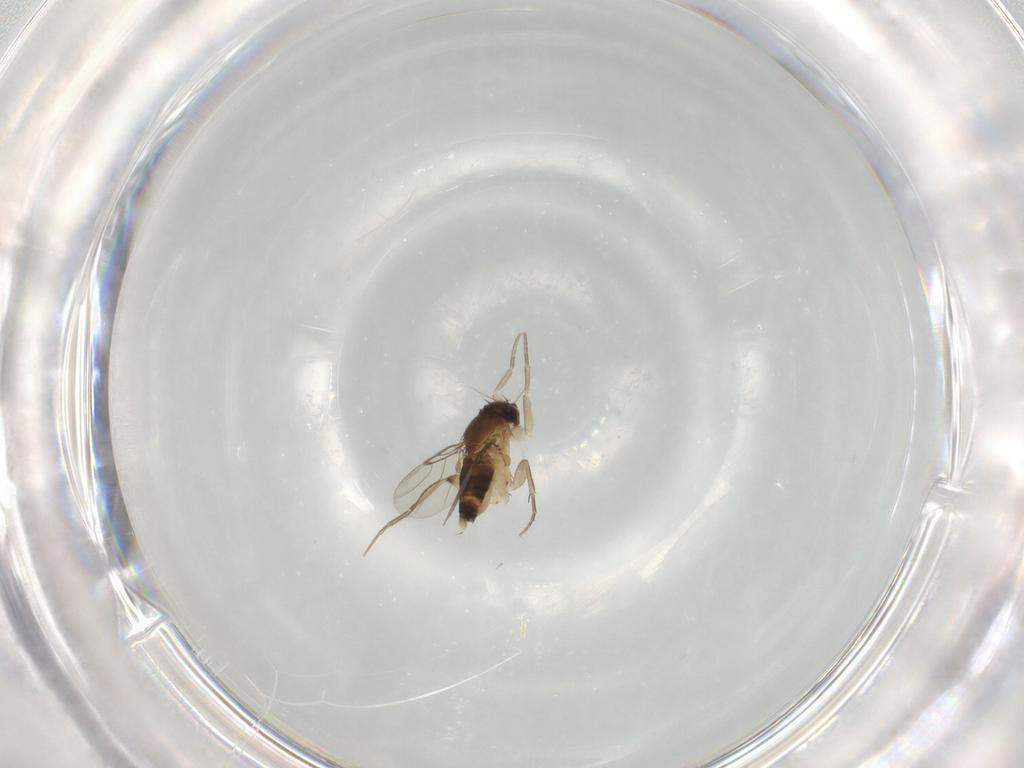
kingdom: Animalia
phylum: Arthropoda
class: Insecta
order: Diptera
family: Phoridae
